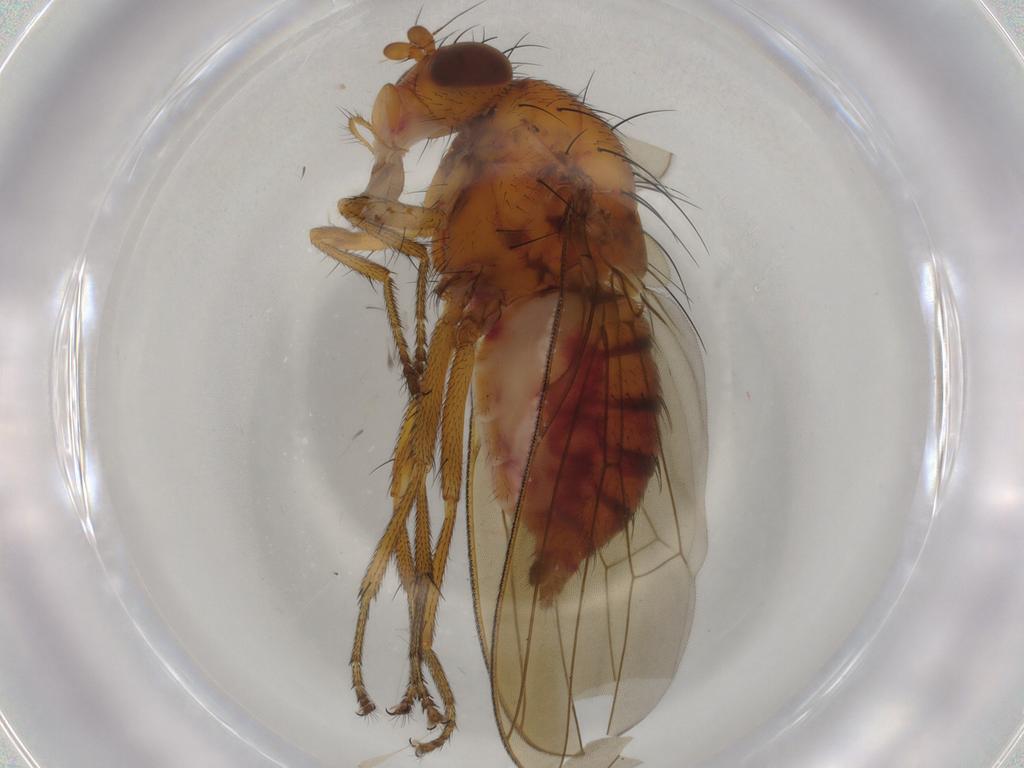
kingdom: Animalia
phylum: Arthropoda
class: Insecta
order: Diptera
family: Lauxaniidae
